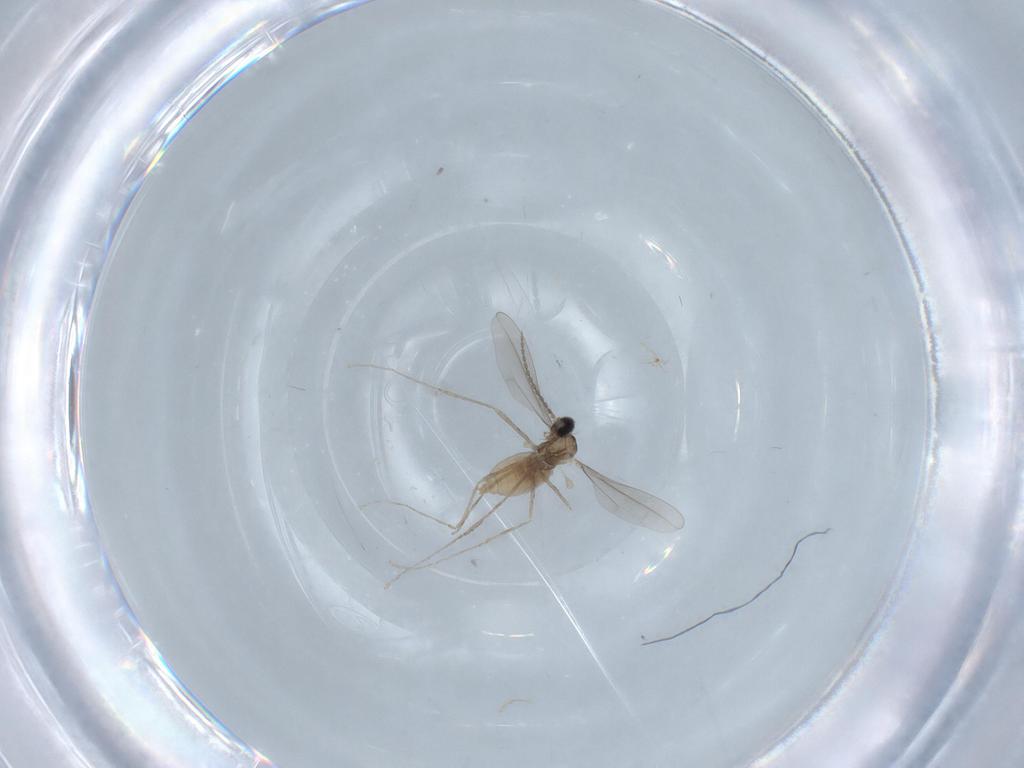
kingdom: Animalia
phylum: Arthropoda
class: Insecta
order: Diptera
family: Cecidomyiidae
